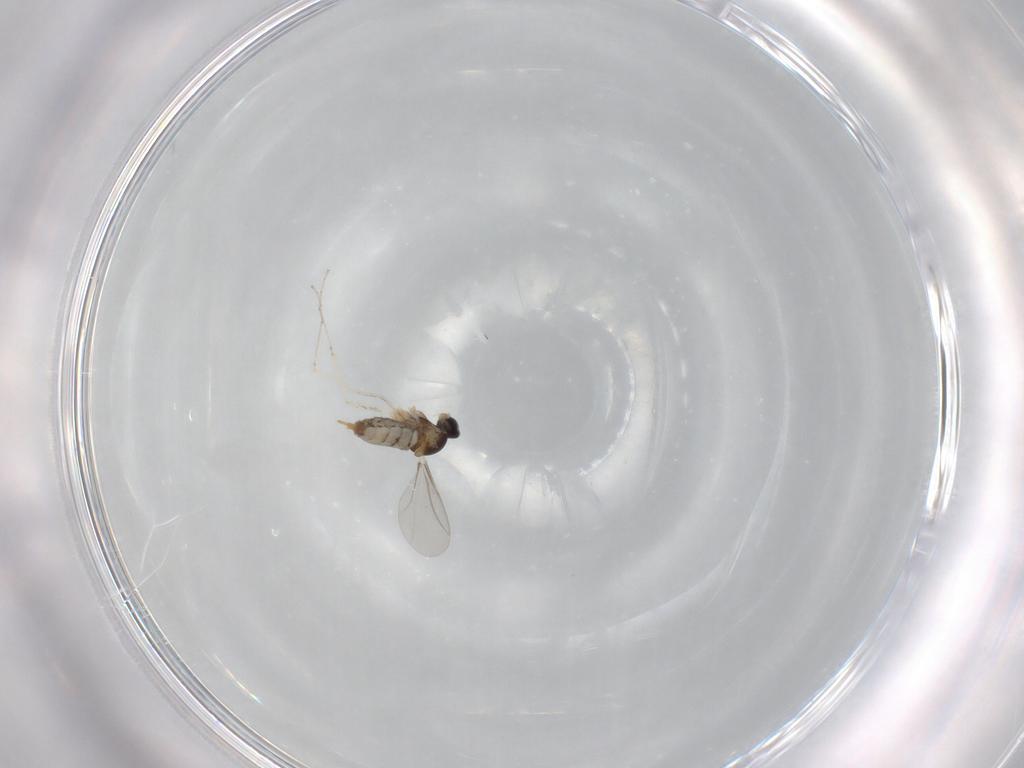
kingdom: Animalia
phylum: Arthropoda
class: Insecta
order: Diptera
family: Cecidomyiidae
